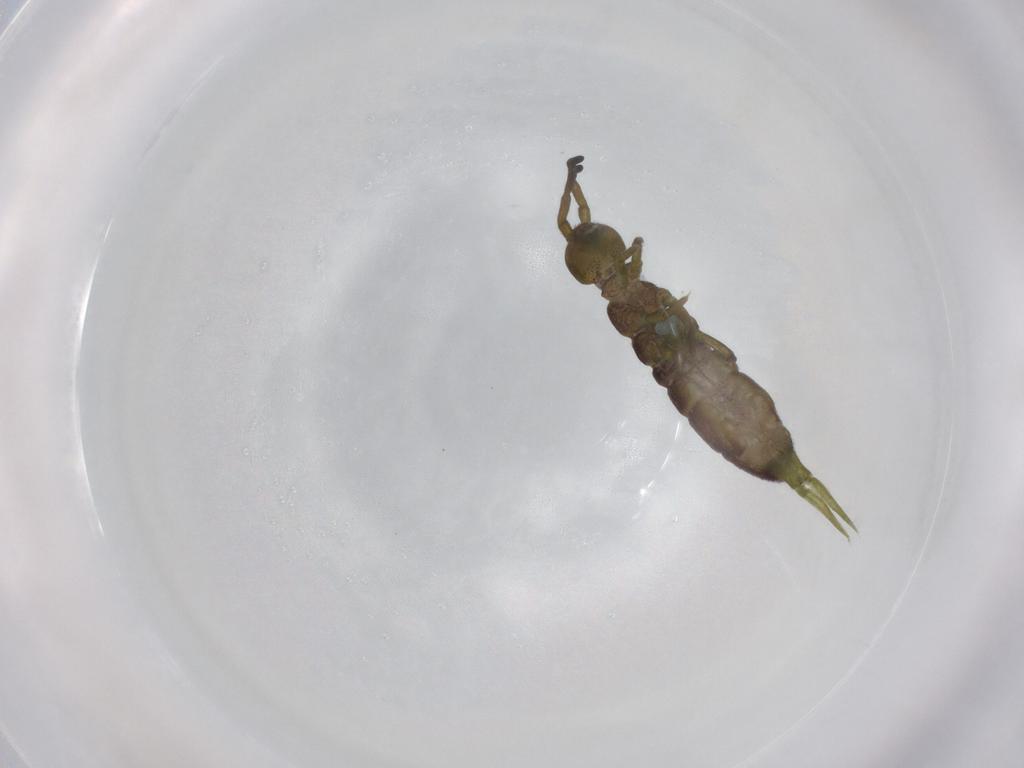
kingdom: Animalia
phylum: Arthropoda
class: Collembola
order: Entomobryomorpha
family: Isotomidae
